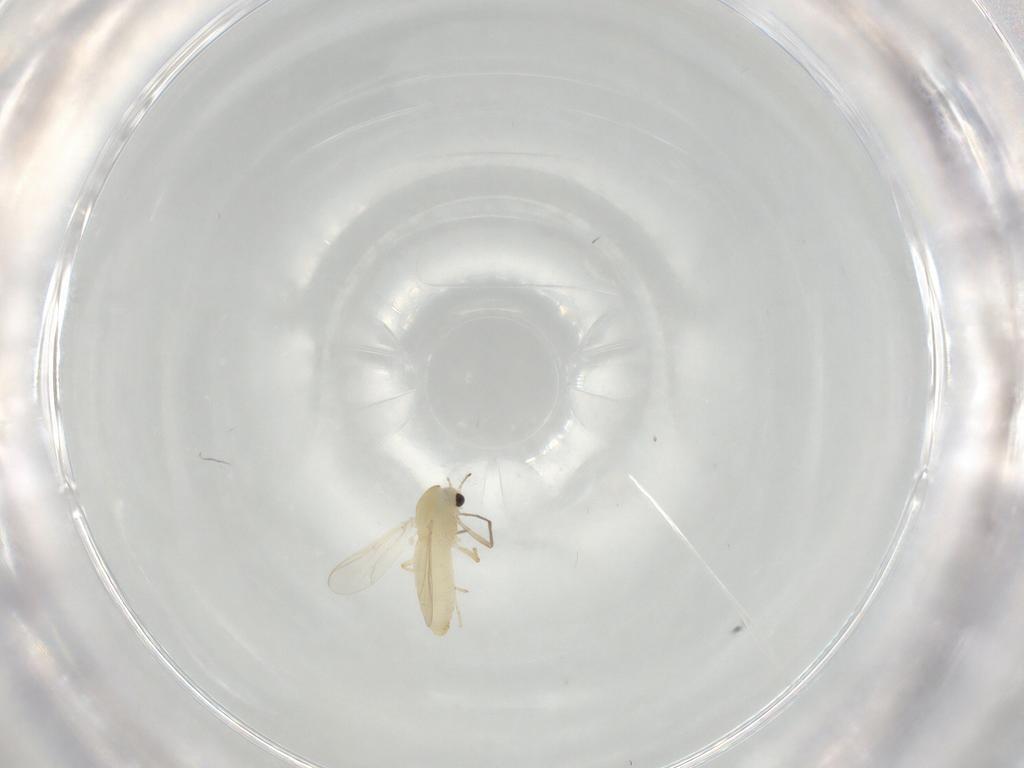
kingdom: Animalia
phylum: Arthropoda
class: Insecta
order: Diptera
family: Chironomidae
